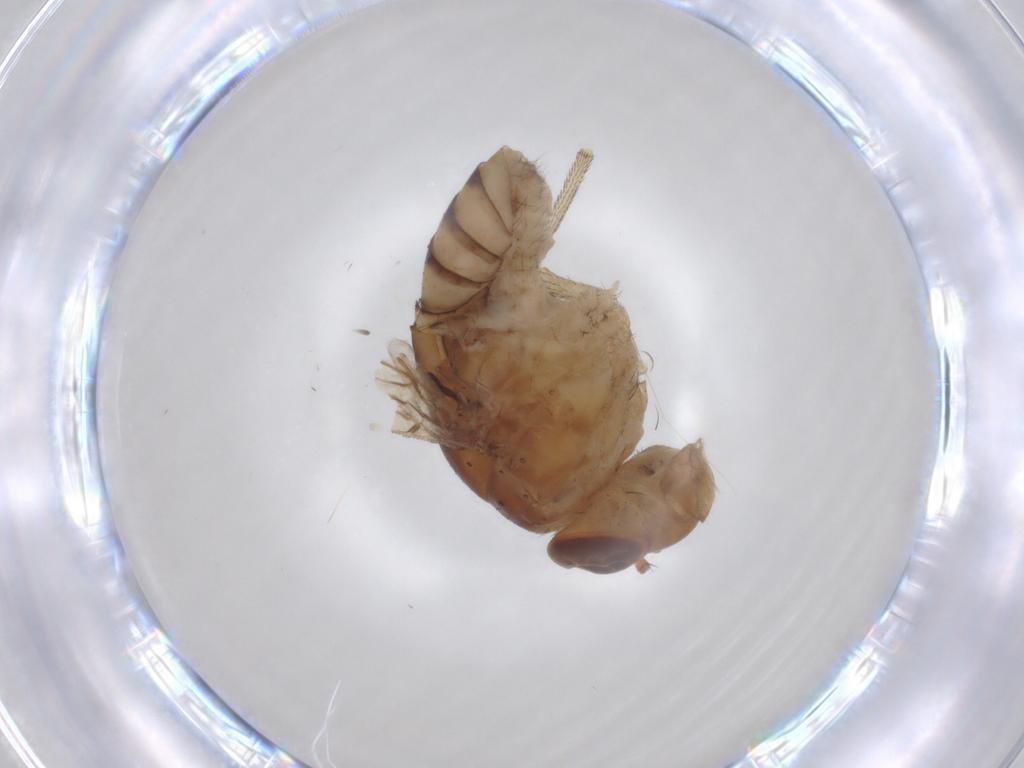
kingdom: Animalia
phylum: Arthropoda
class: Insecta
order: Diptera
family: Ephydridae
